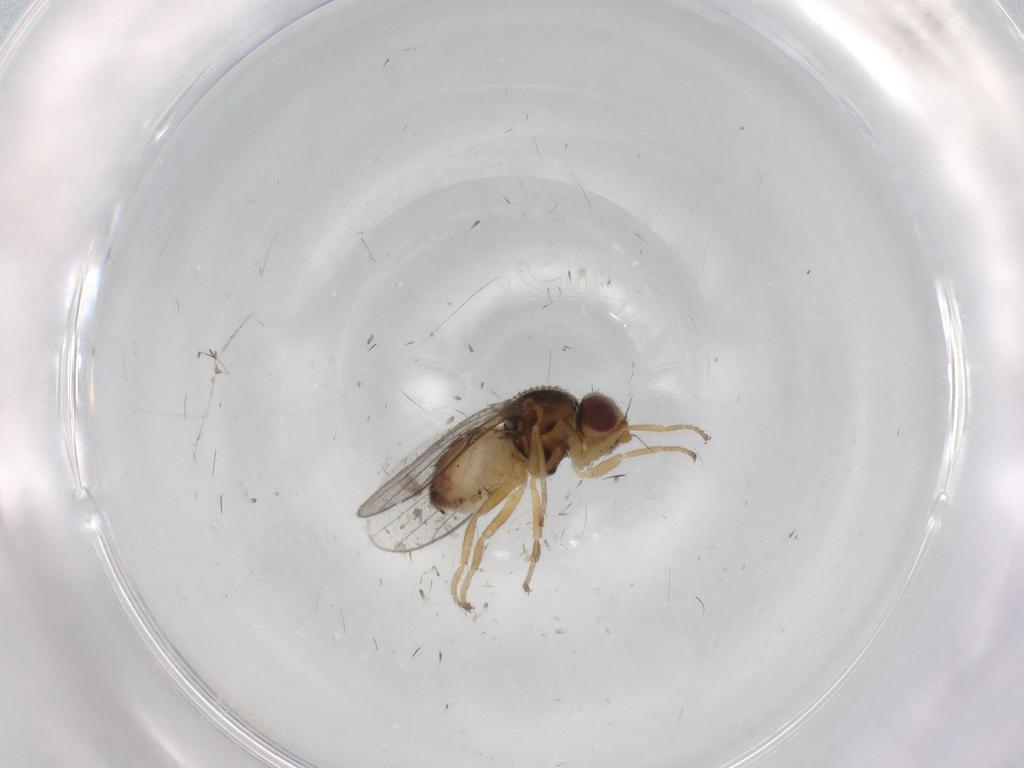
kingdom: Animalia
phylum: Arthropoda
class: Insecta
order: Diptera
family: Chloropidae
